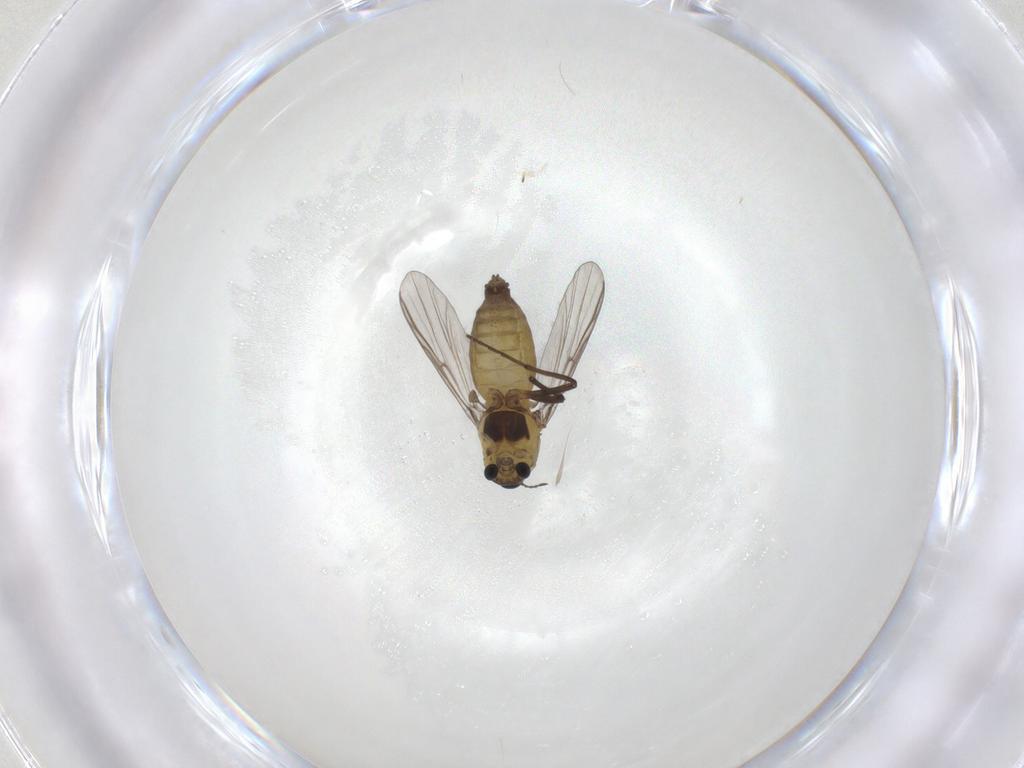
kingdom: Animalia
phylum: Arthropoda
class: Insecta
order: Diptera
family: Chironomidae
